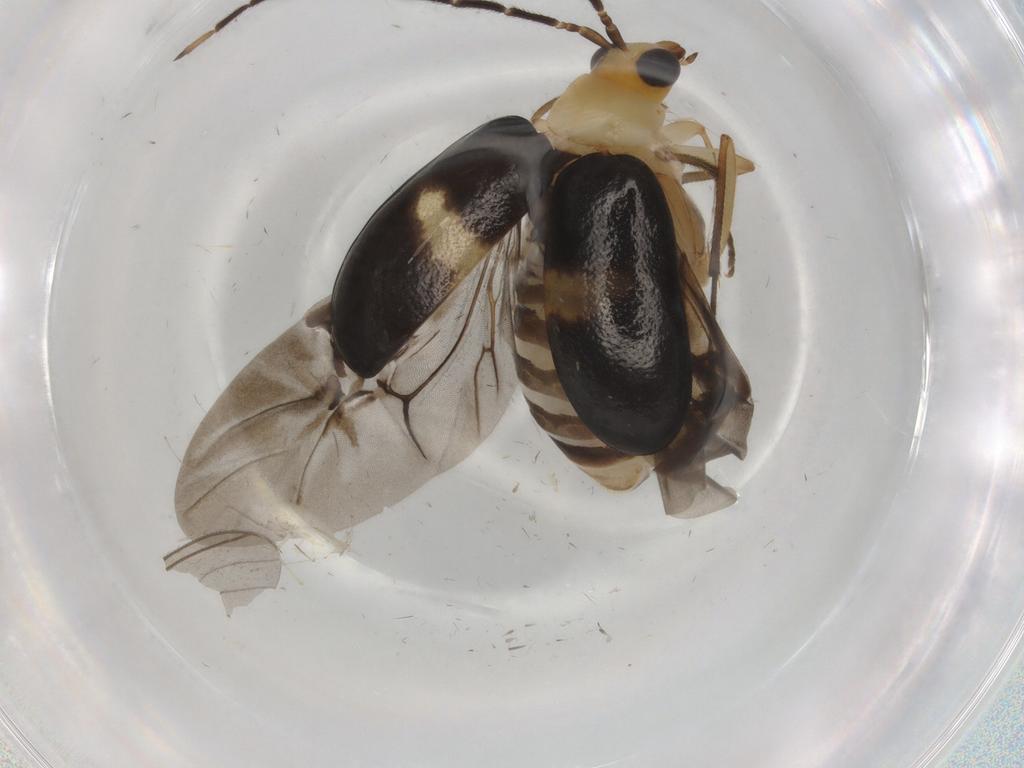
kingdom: Animalia
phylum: Arthropoda
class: Insecta
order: Coleoptera
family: Chrysomelidae
